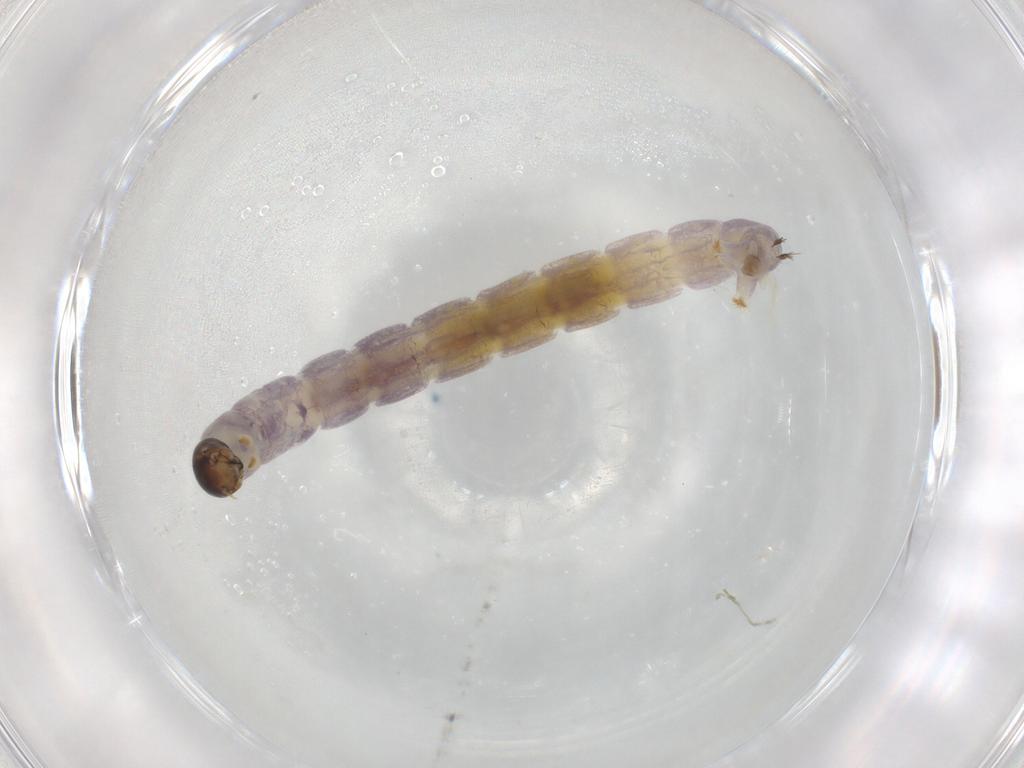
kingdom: Animalia
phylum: Arthropoda
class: Insecta
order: Diptera
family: Chironomidae
